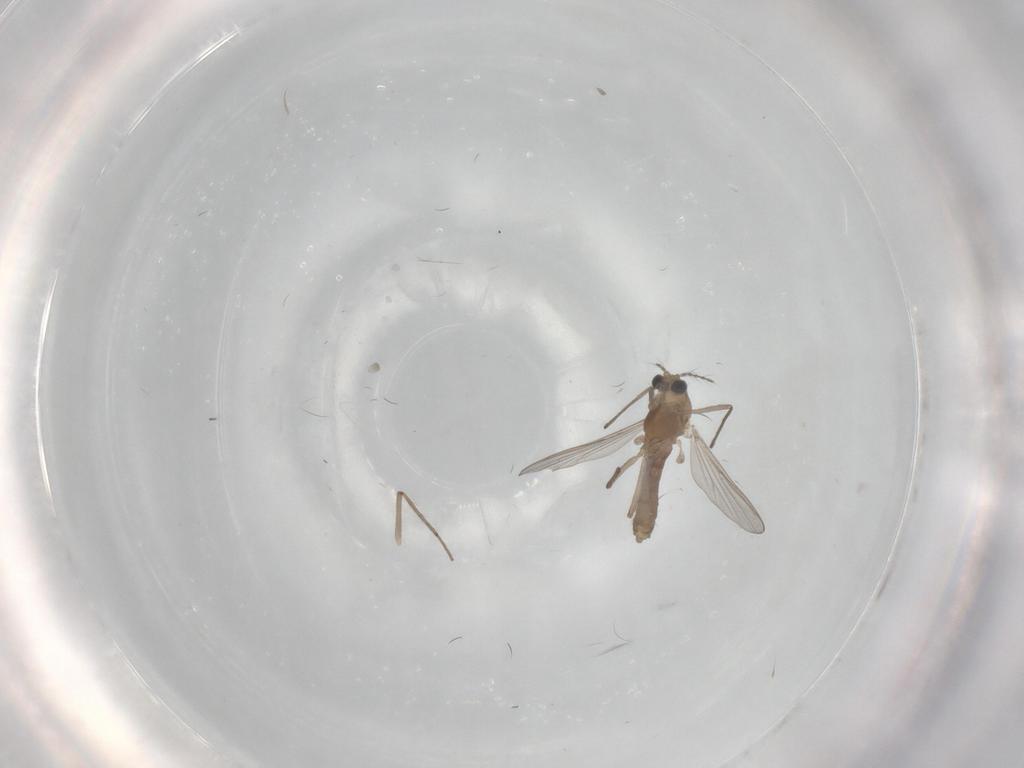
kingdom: Animalia
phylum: Arthropoda
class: Insecta
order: Diptera
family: Chironomidae
